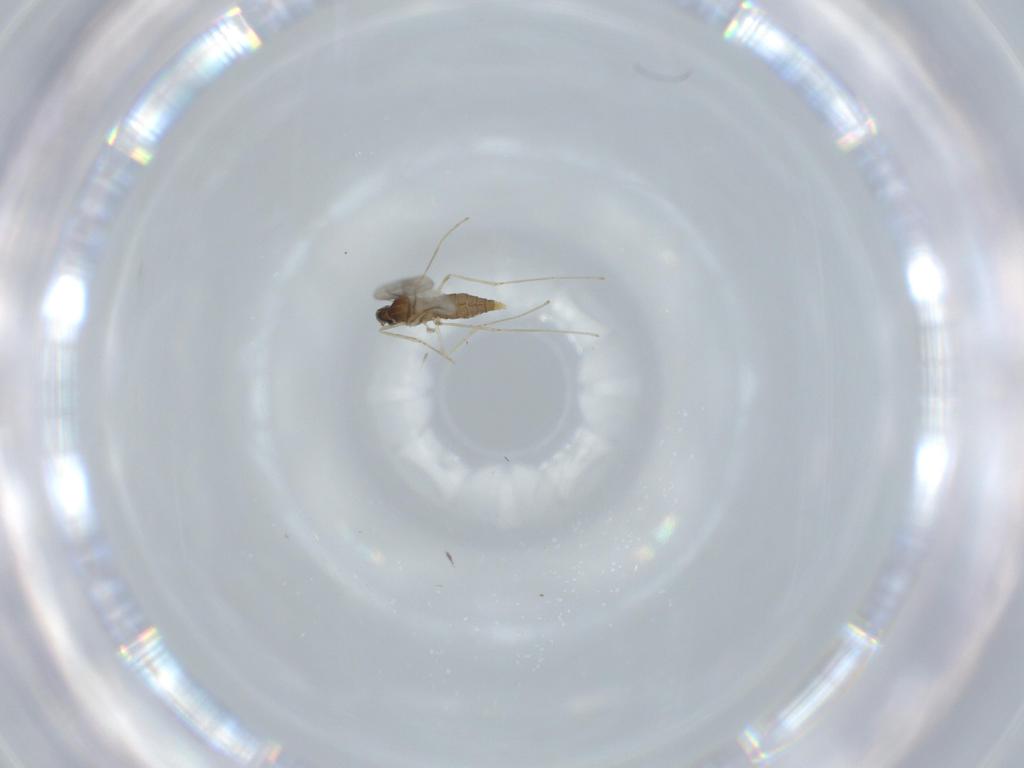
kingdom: Animalia
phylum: Arthropoda
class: Insecta
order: Diptera
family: Cecidomyiidae
